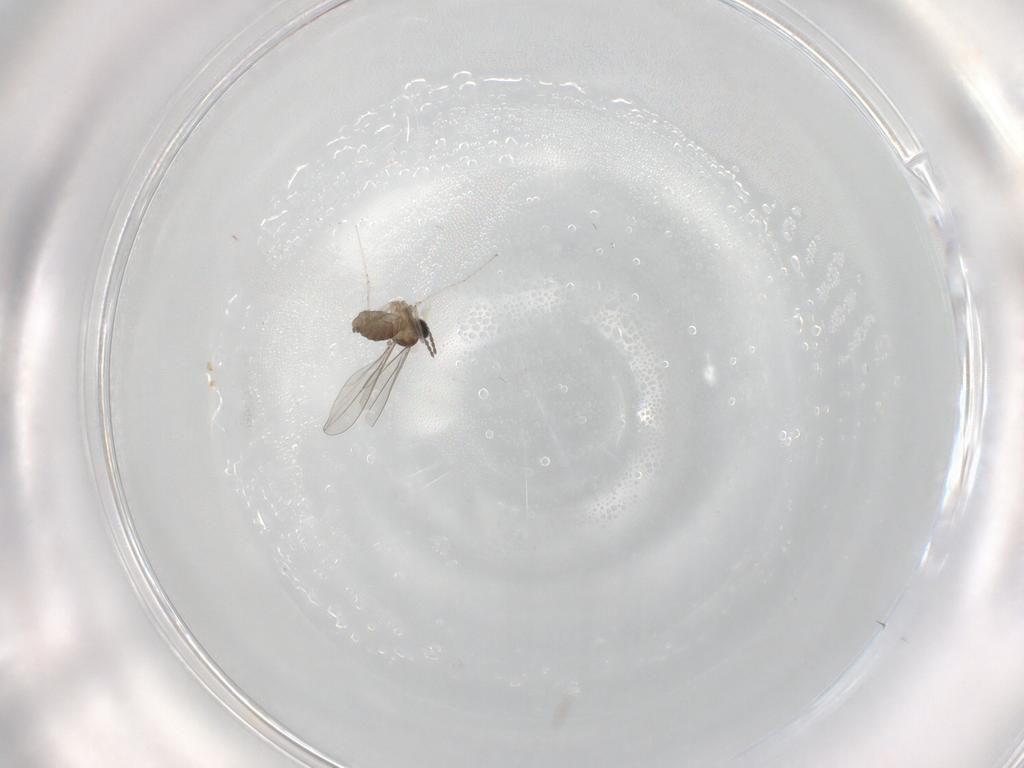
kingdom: Animalia
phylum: Arthropoda
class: Insecta
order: Diptera
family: Cecidomyiidae
